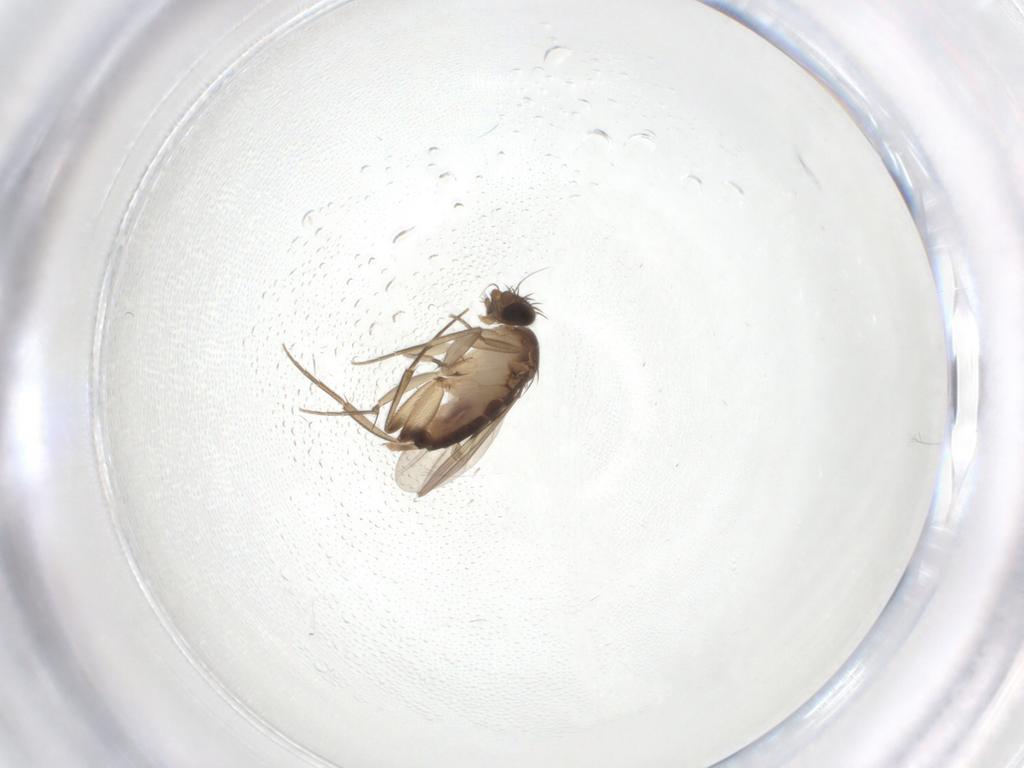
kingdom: Animalia
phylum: Arthropoda
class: Insecta
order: Diptera
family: Phoridae
